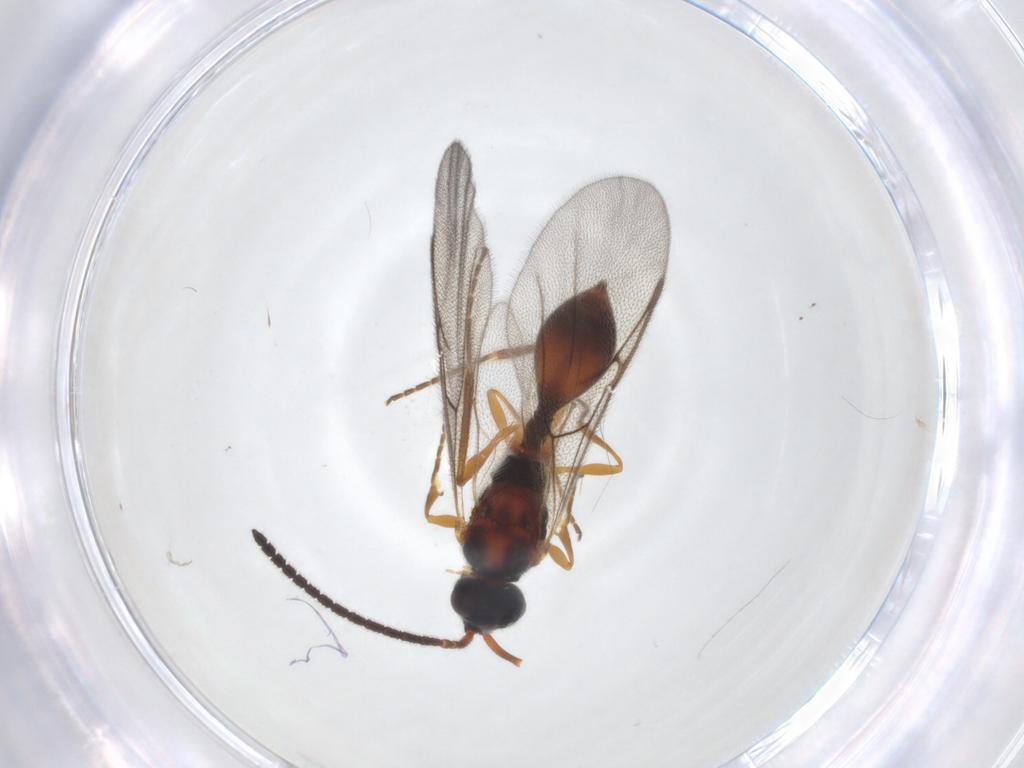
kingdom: Animalia
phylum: Arthropoda
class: Insecta
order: Hymenoptera
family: Diapriidae
